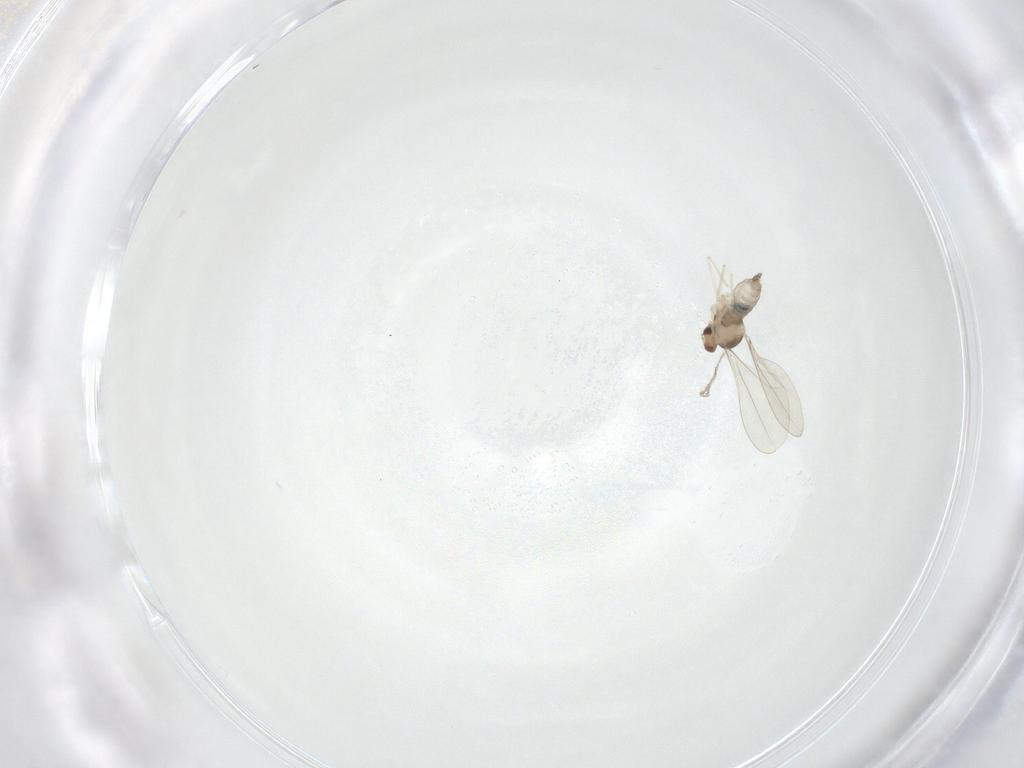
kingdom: Animalia
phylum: Arthropoda
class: Insecta
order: Diptera
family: Cecidomyiidae
